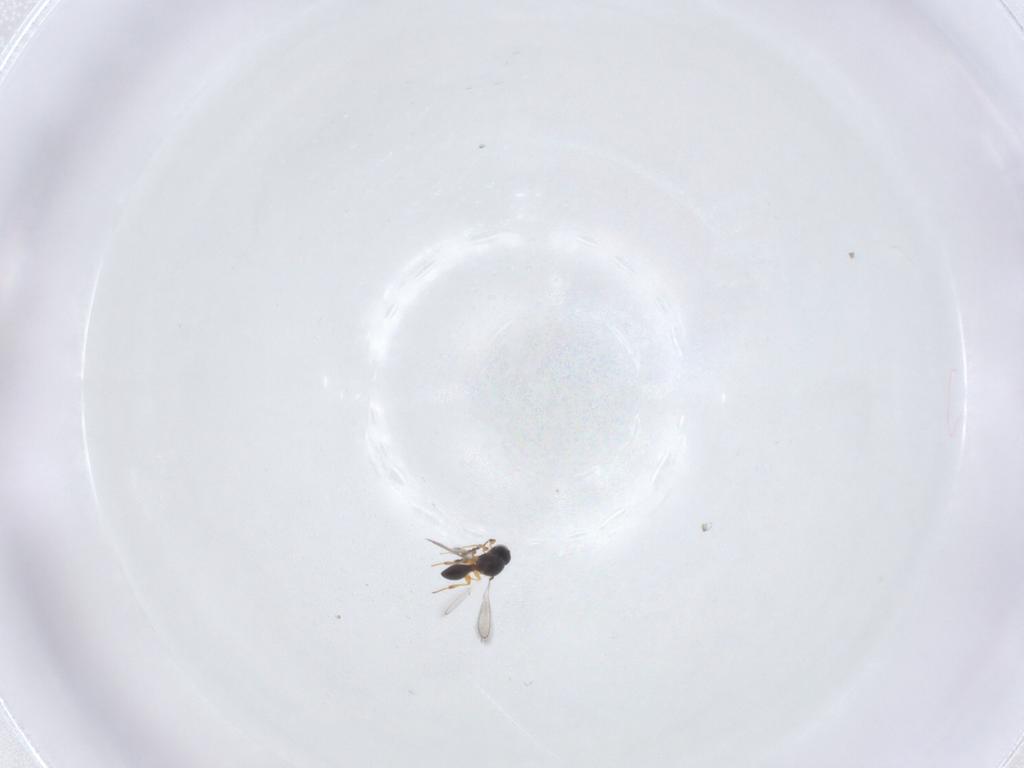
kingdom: Animalia
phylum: Arthropoda
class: Insecta
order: Hymenoptera
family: Platygastridae
